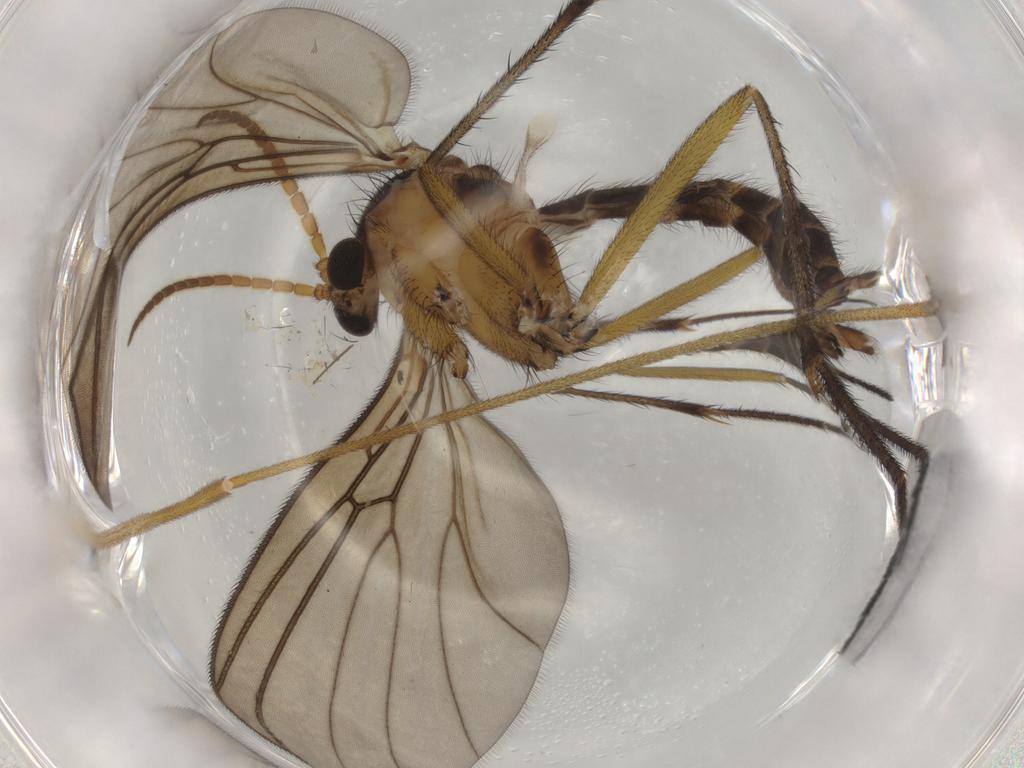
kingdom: Animalia
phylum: Arthropoda
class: Insecta
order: Diptera
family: Limoniidae
